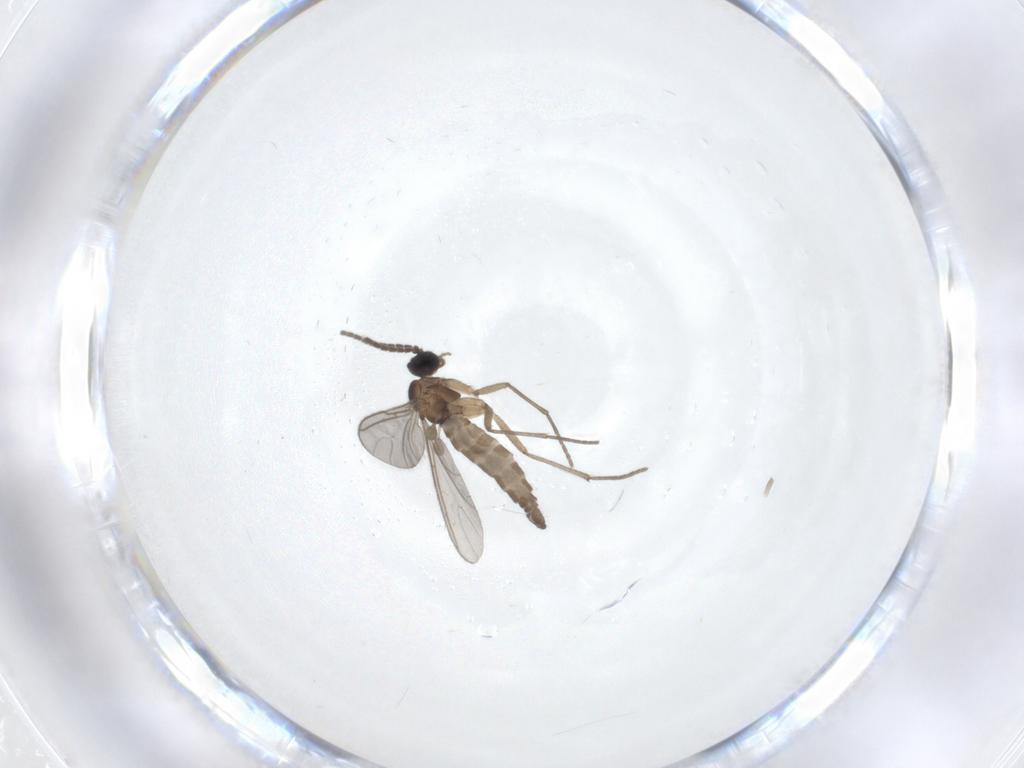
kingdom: Animalia
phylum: Arthropoda
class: Insecta
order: Diptera
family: Sciaridae
